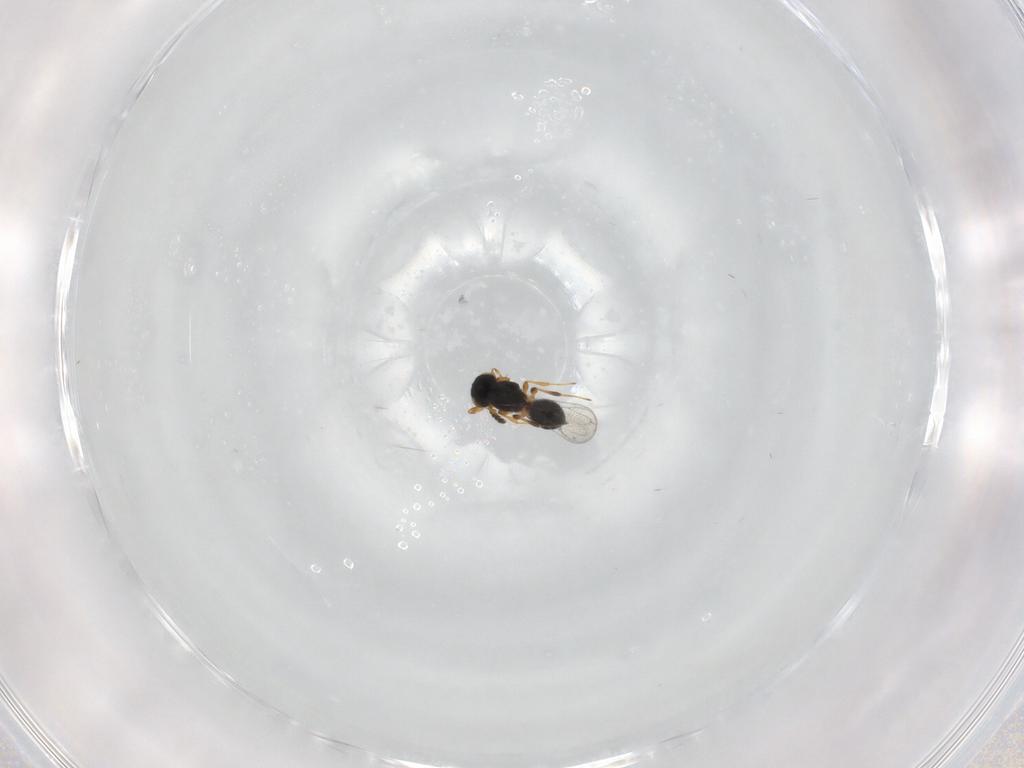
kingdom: Animalia
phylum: Arthropoda
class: Insecta
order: Hymenoptera
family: Platygastridae
